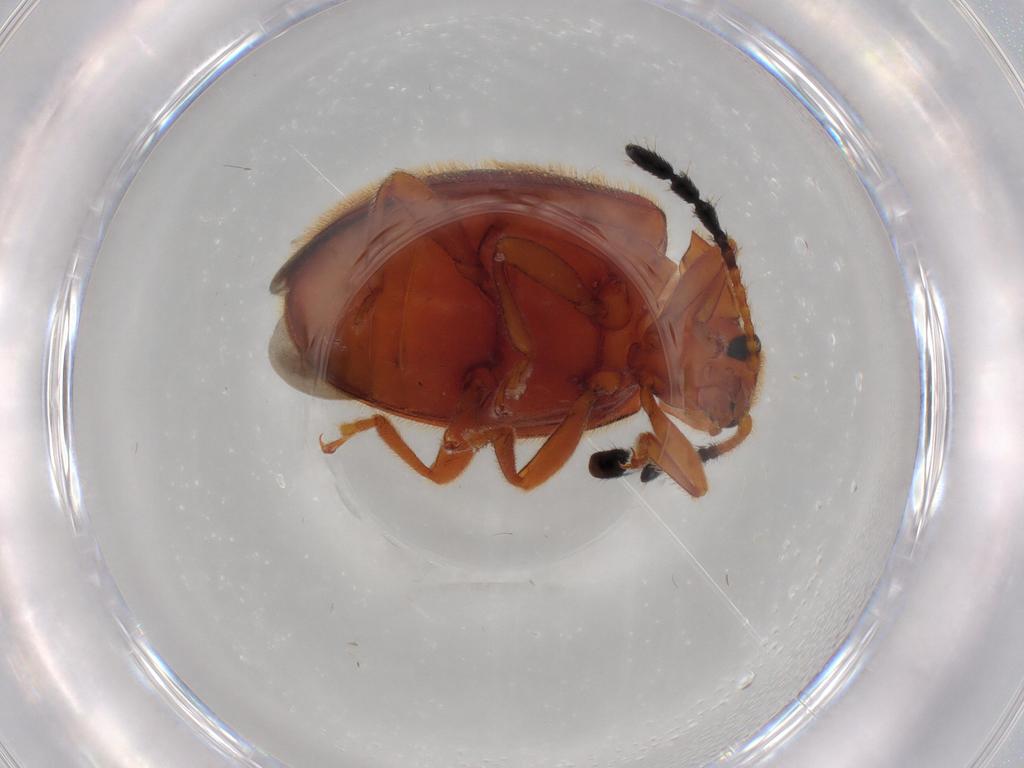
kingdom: Animalia
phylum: Arthropoda
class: Insecta
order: Coleoptera
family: Endomychidae
